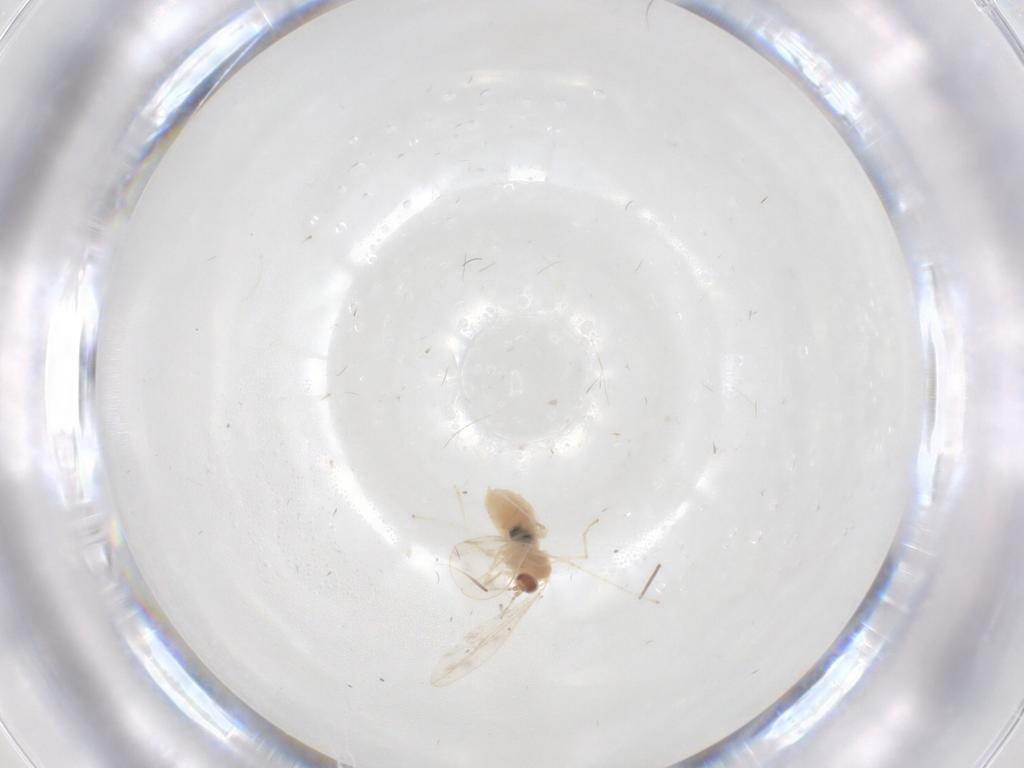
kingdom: Animalia
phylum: Arthropoda
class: Insecta
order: Diptera
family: Cecidomyiidae
